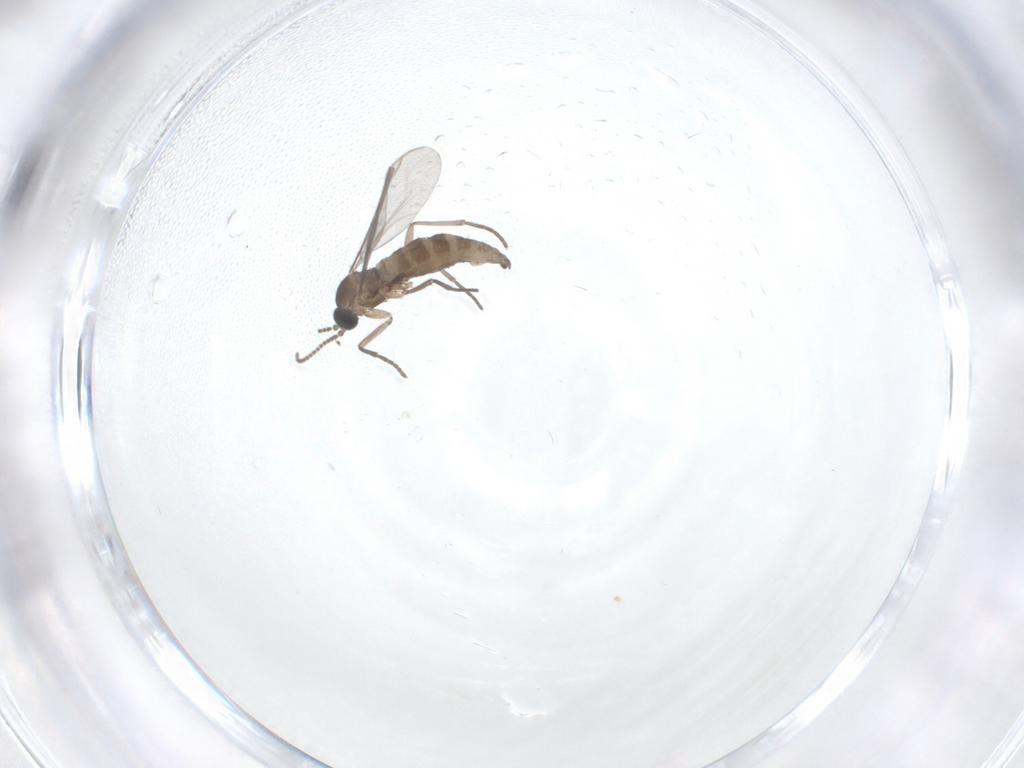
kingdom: Animalia
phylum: Arthropoda
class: Insecta
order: Diptera
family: Psychodidae
